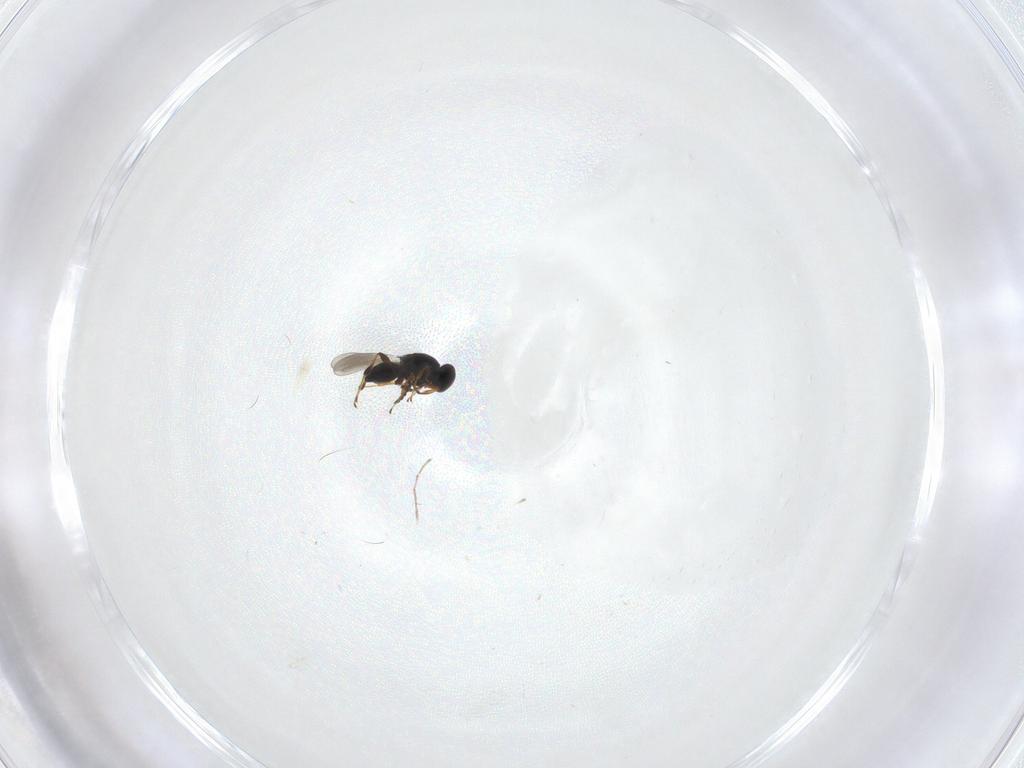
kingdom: Animalia
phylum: Arthropoda
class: Insecta
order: Hymenoptera
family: Platygastridae
